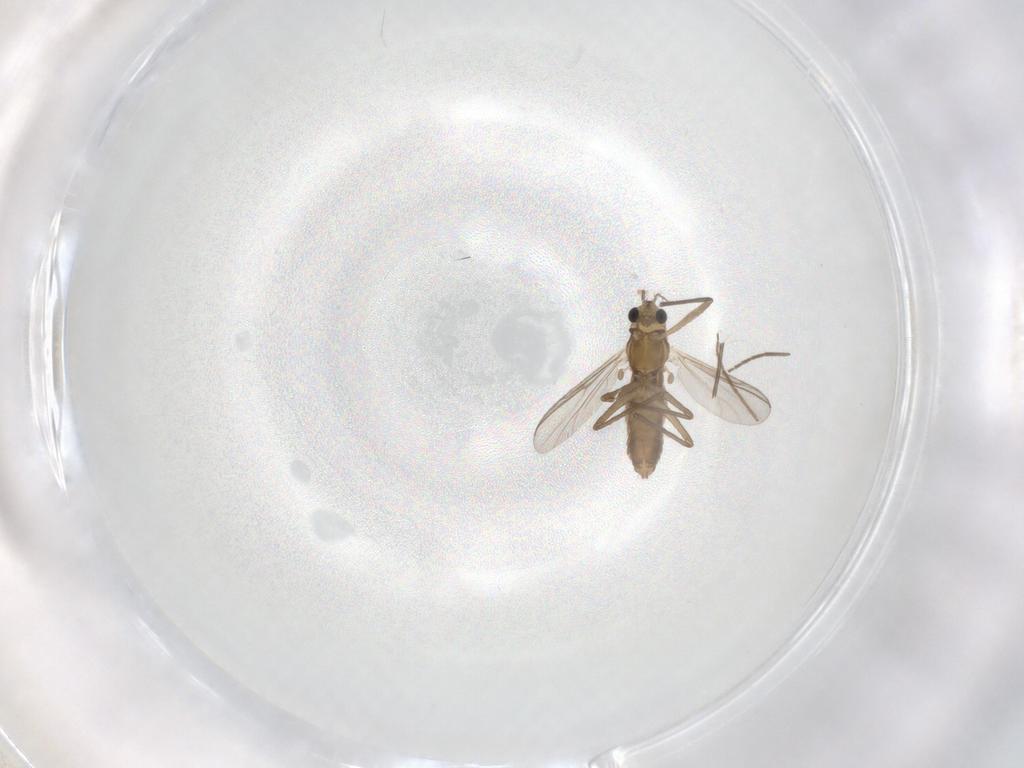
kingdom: Animalia
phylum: Arthropoda
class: Insecta
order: Diptera
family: Chironomidae
